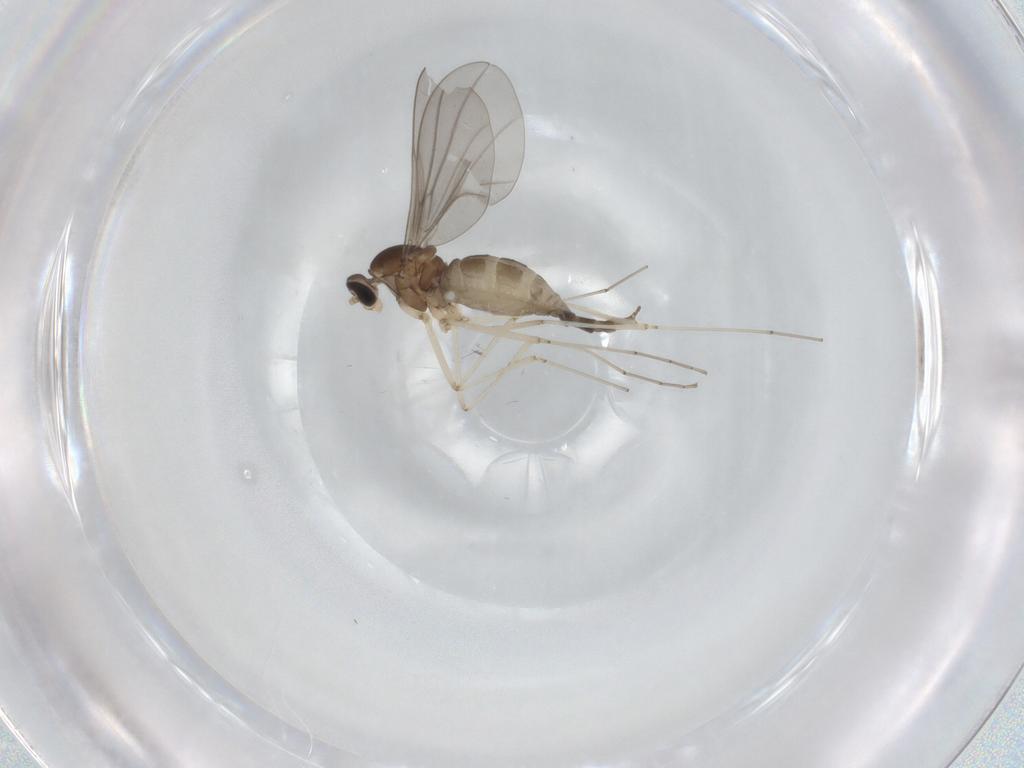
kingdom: Animalia
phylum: Arthropoda
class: Insecta
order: Diptera
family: Cecidomyiidae
